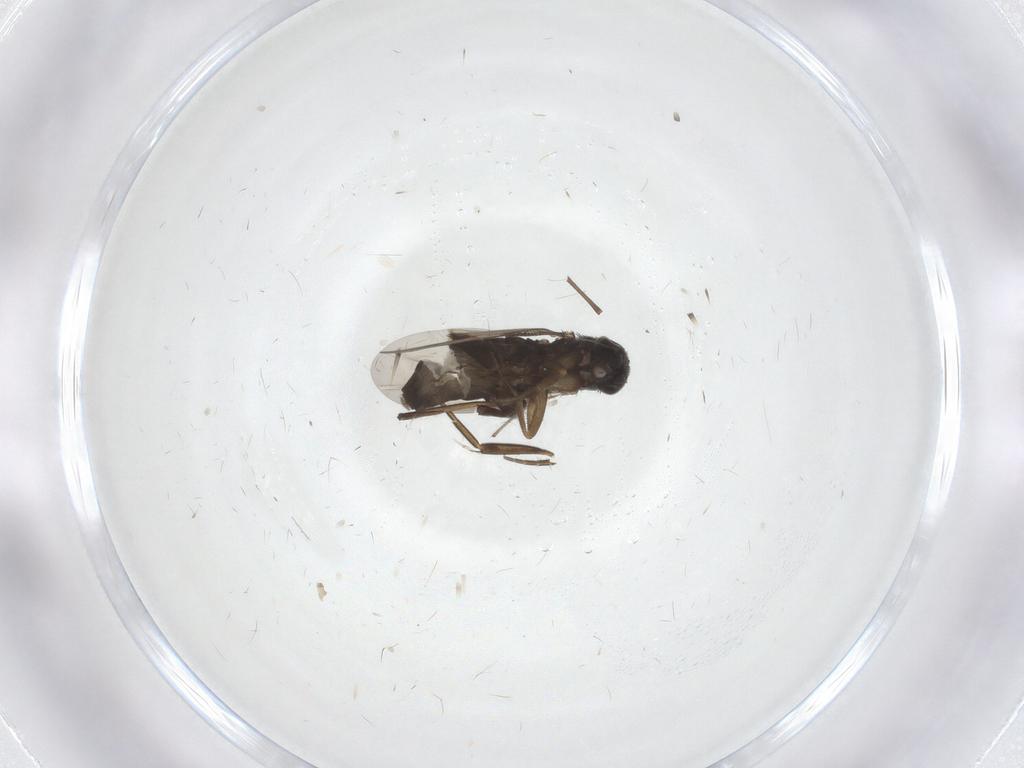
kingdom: Animalia
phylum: Arthropoda
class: Insecta
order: Diptera
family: Phoridae
